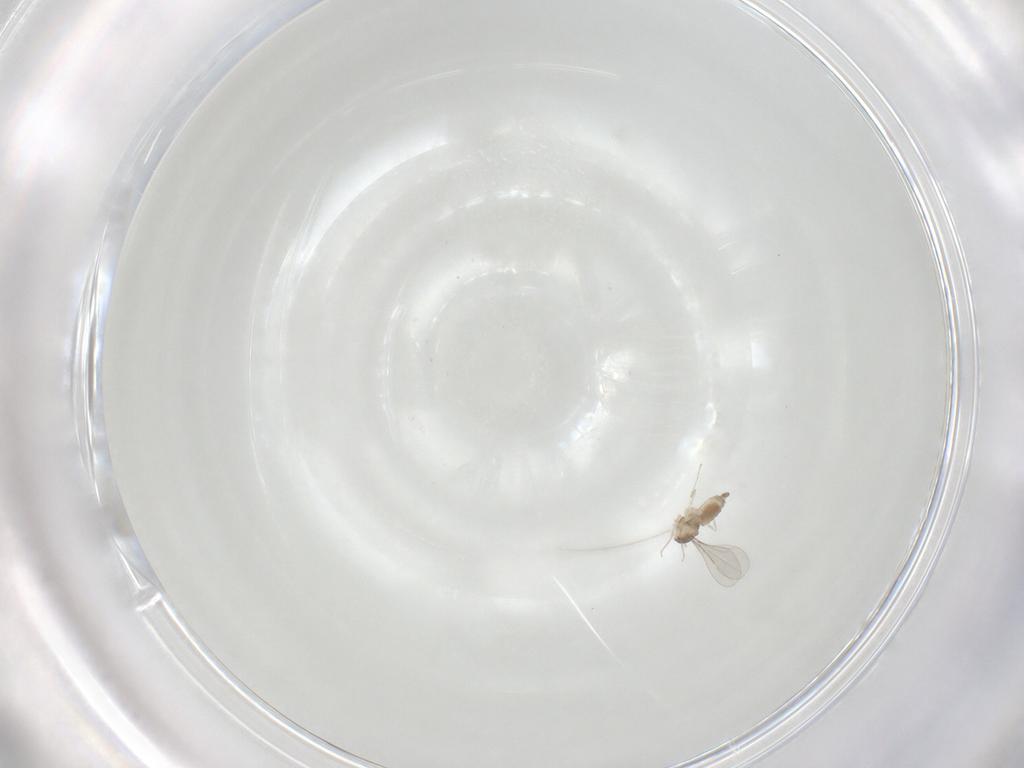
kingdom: Animalia
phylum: Arthropoda
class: Insecta
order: Diptera
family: Cecidomyiidae
